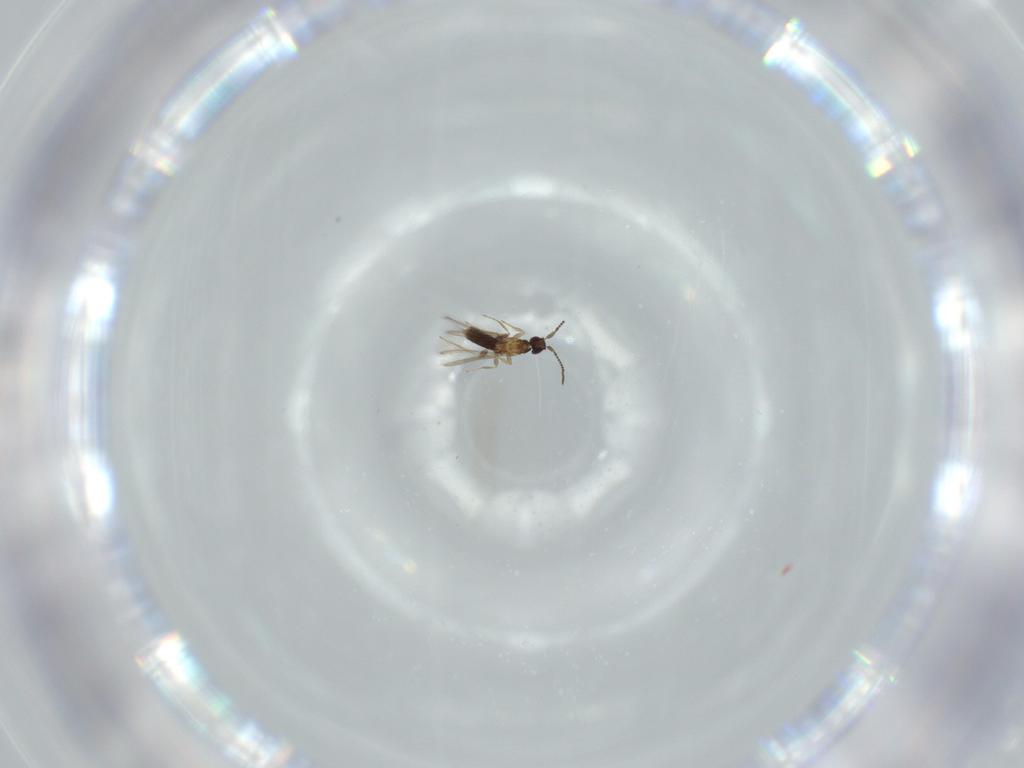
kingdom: Animalia
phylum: Arthropoda
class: Insecta
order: Hymenoptera
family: Mymaridae
